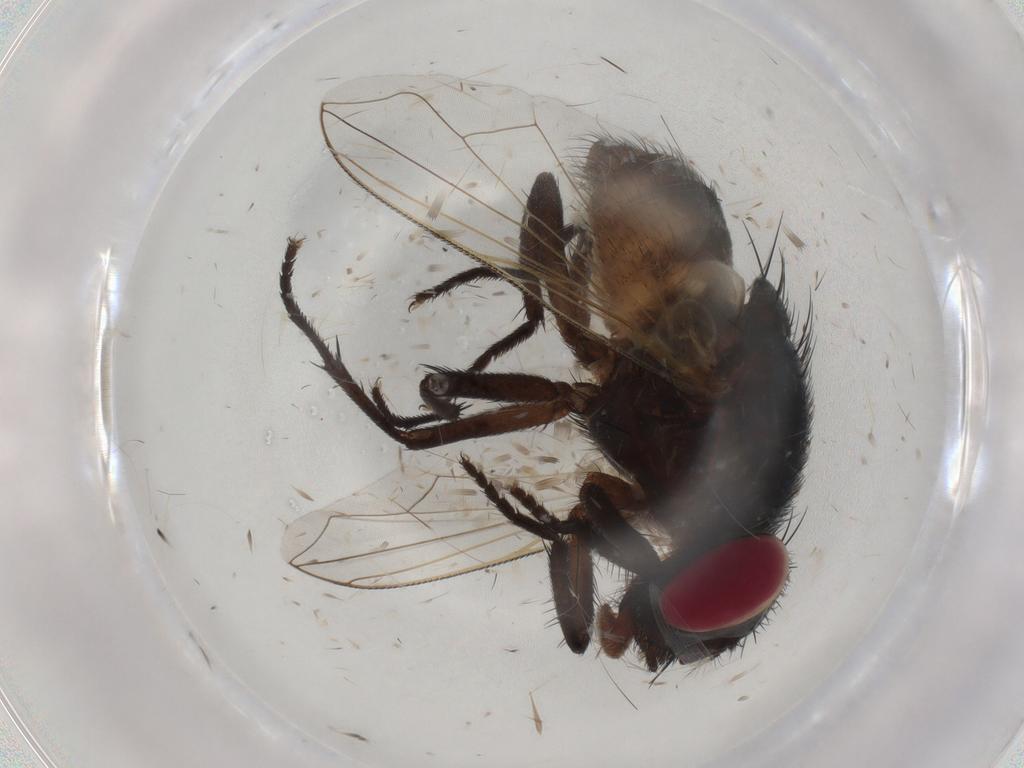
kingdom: Animalia
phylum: Arthropoda
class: Insecta
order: Diptera
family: Muscidae
